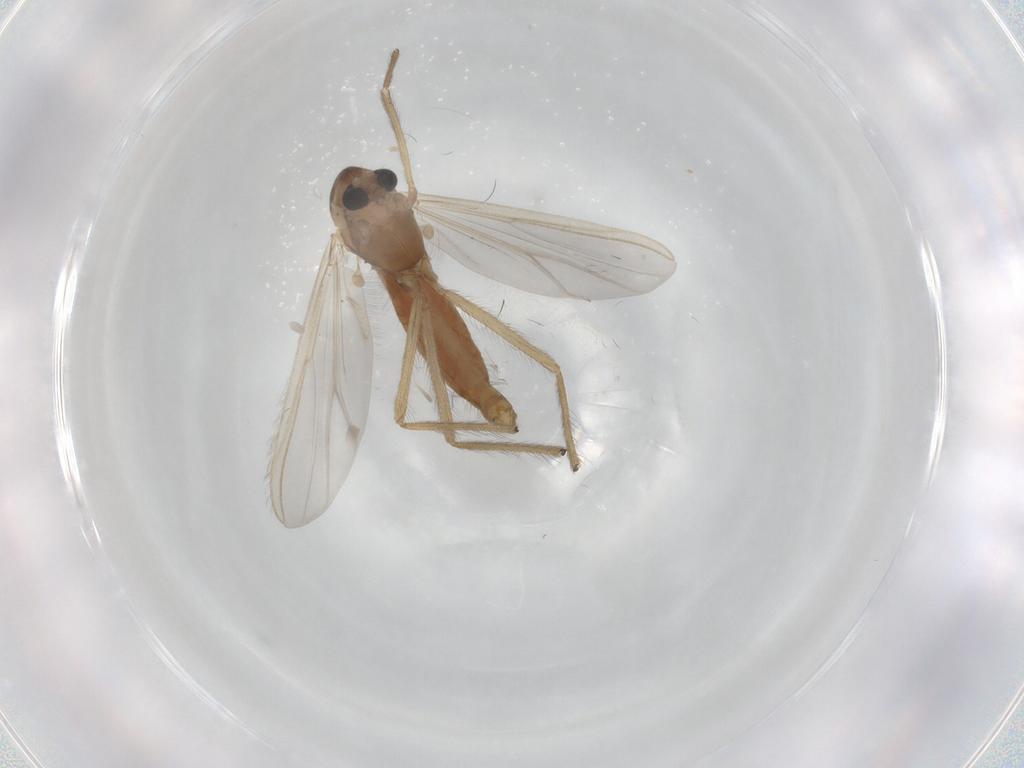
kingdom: Animalia
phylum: Arthropoda
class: Insecta
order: Diptera
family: Chironomidae
